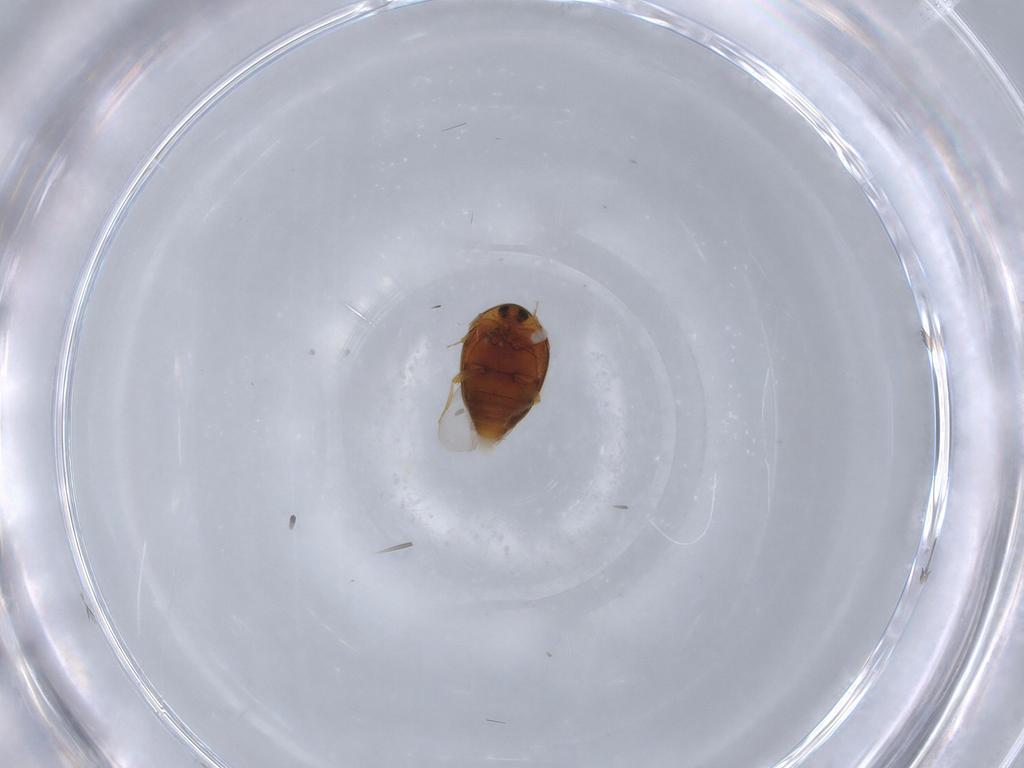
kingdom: Animalia
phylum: Arthropoda
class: Insecta
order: Coleoptera
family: Corylophidae
